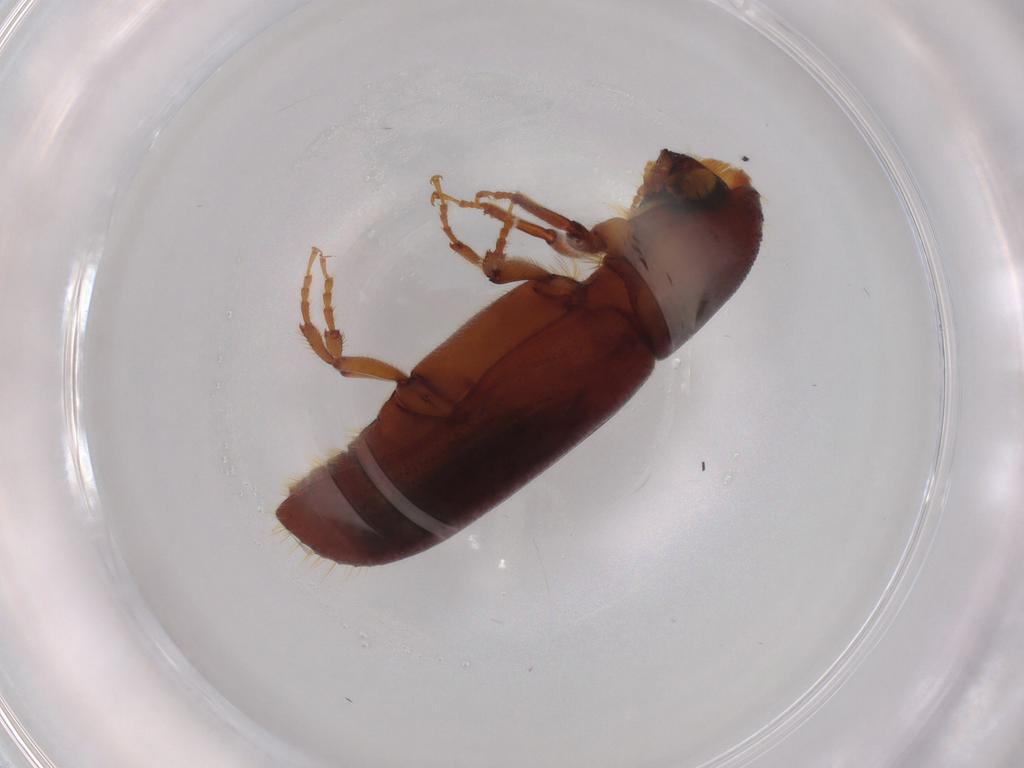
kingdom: Animalia
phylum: Arthropoda
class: Insecta
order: Coleoptera
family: Curculionidae
